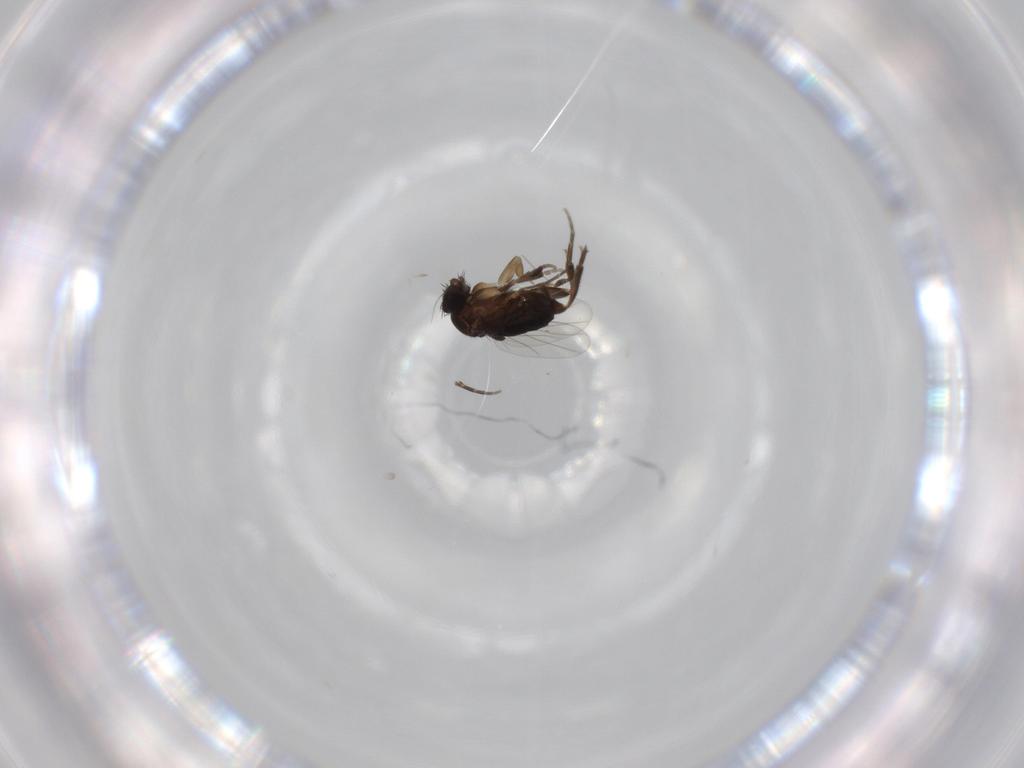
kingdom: Animalia
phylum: Arthropoda
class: Insecta
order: Diptera
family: Phoridae
